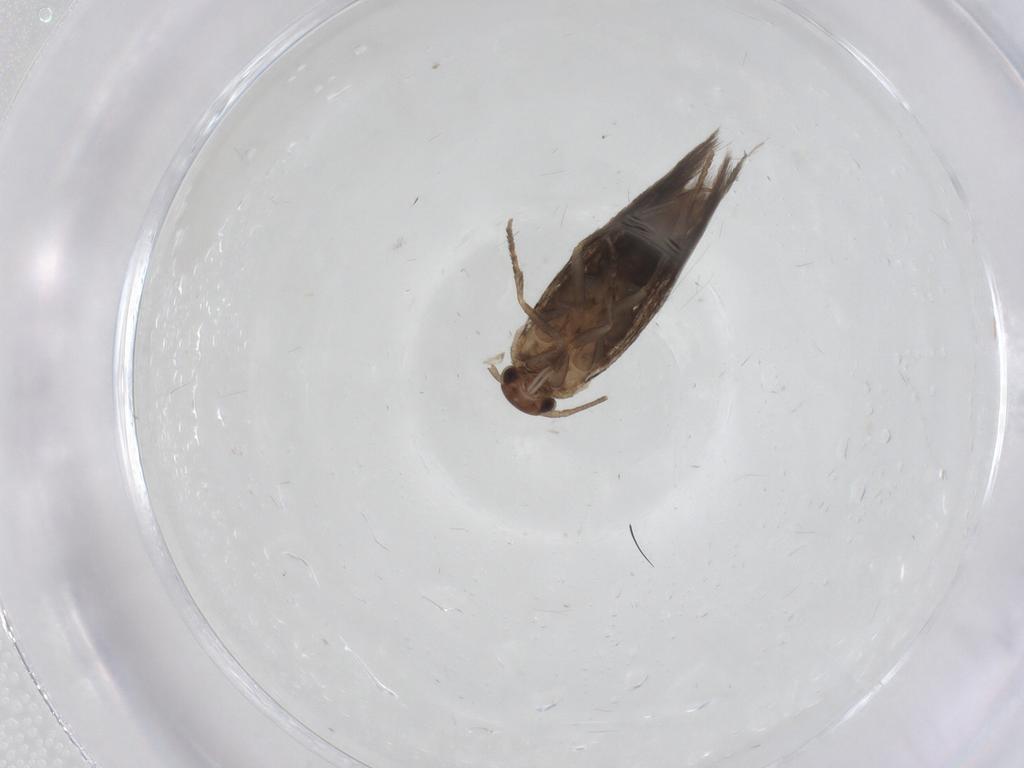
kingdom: Animalia
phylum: Arthropoda
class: Insecta
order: Lepidoptera
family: Elachistidae
